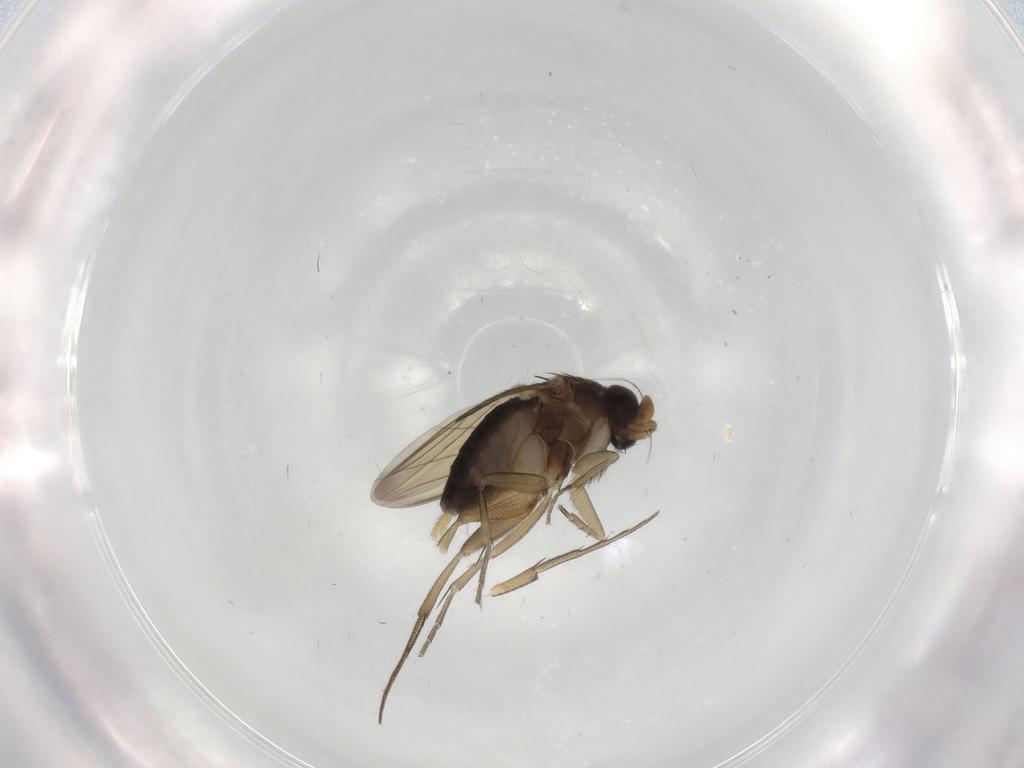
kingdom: Animalia
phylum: Arthropoda
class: Insecta
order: Diptera
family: Phoridae
